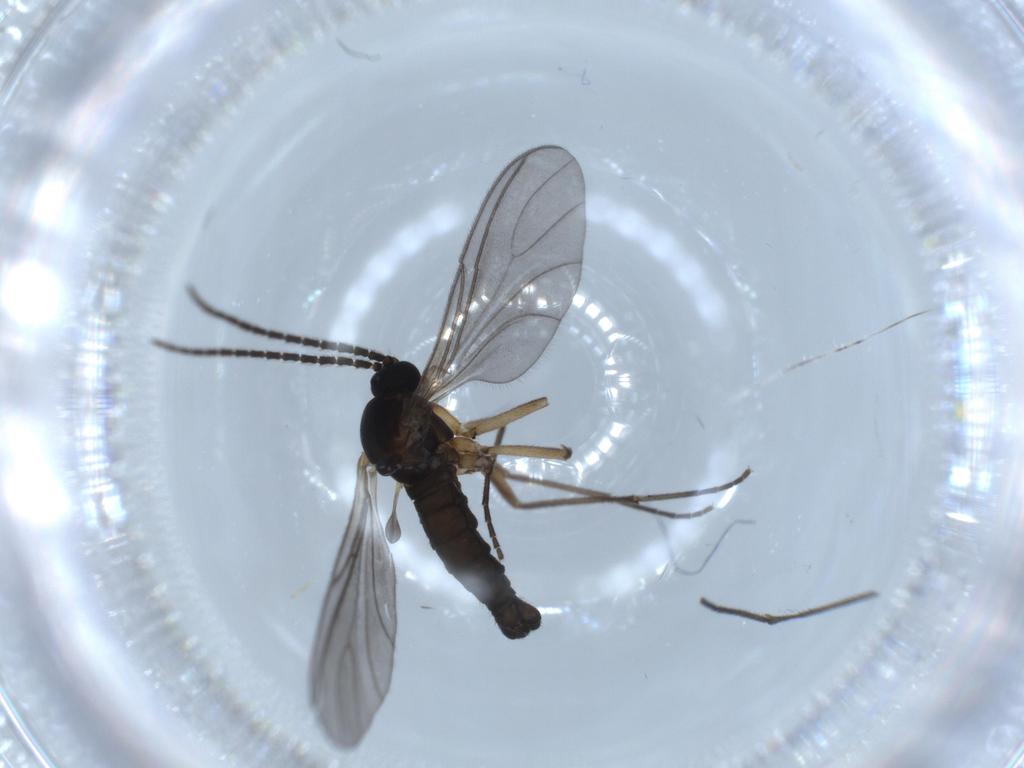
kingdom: Animalia
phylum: Arthropoda
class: Insecta
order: Diptera
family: Sciaridae
